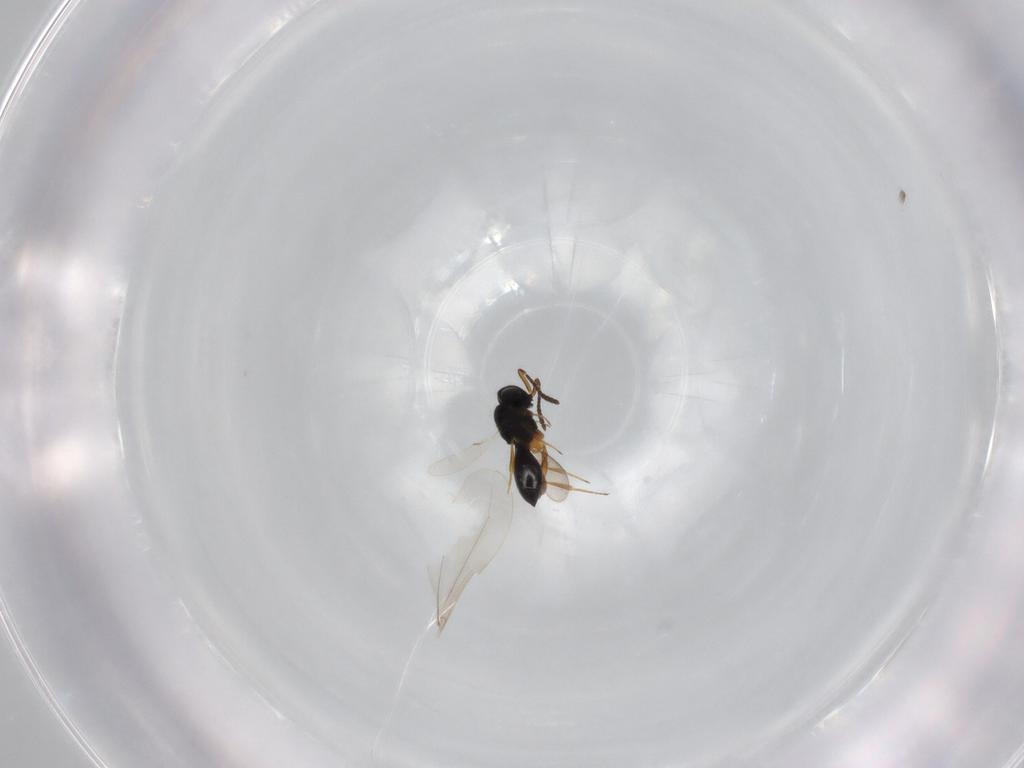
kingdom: Animalia
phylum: Arthropoda
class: Insecta
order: Hymenoptera
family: Scelionidae
